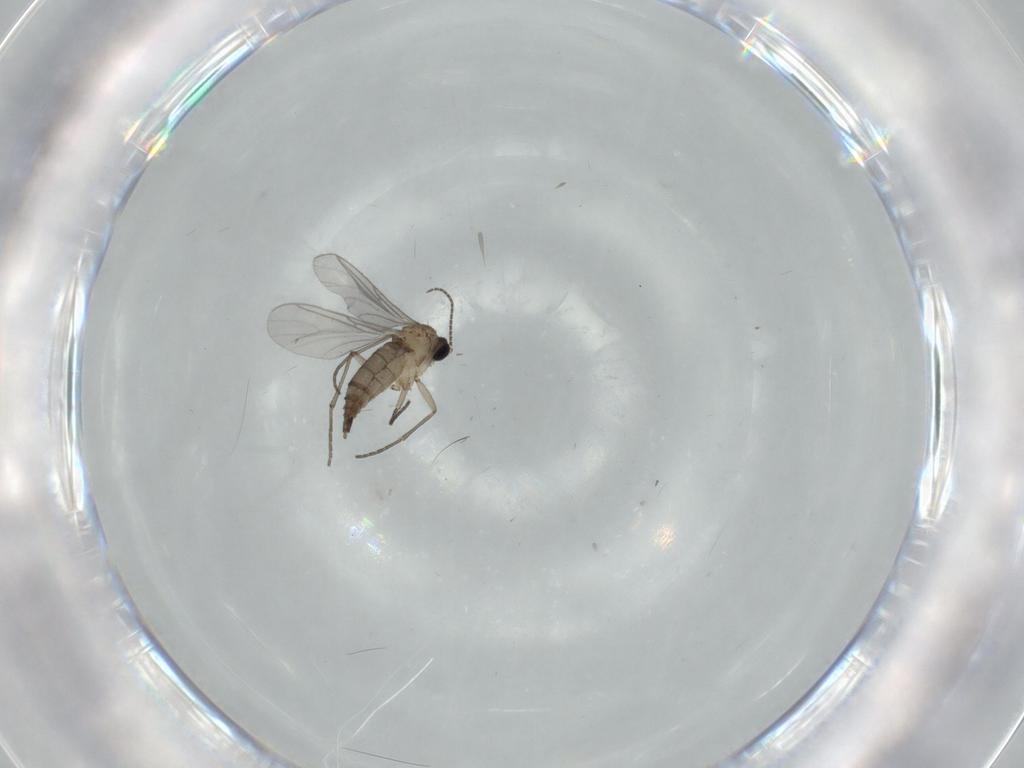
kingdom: Animalia
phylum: Arthropoda
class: Insecta
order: Diptera
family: Sciaridae
